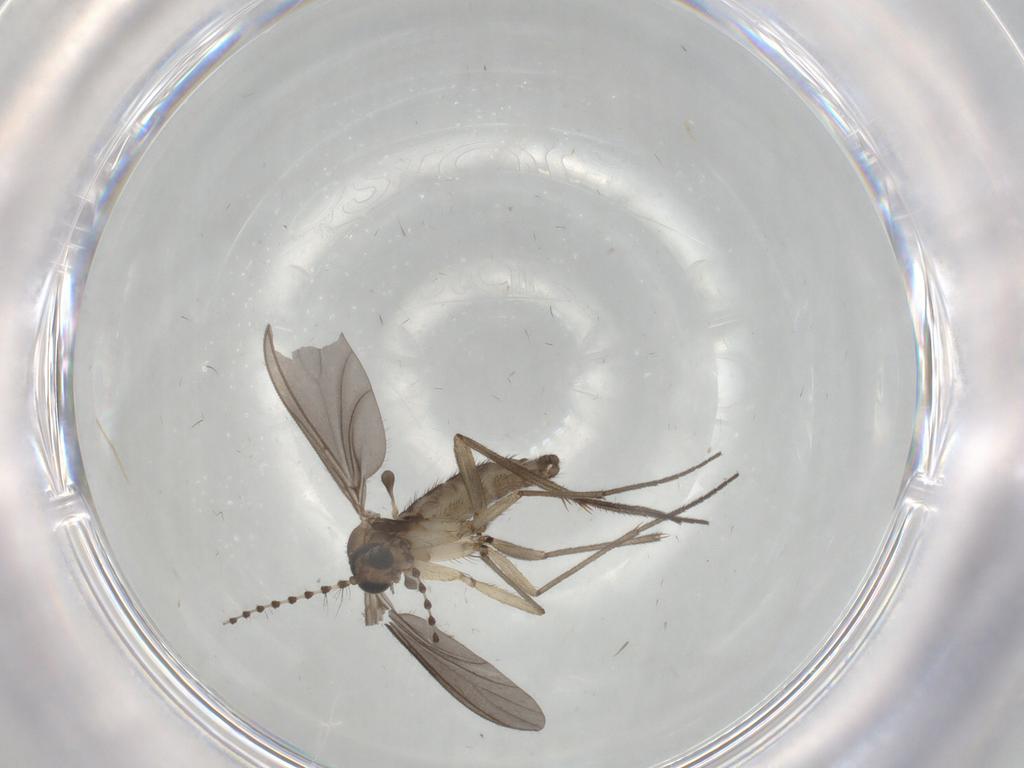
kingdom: Animalia
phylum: Arthropoda
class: Insecta
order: Diptera
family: Sciaridae
